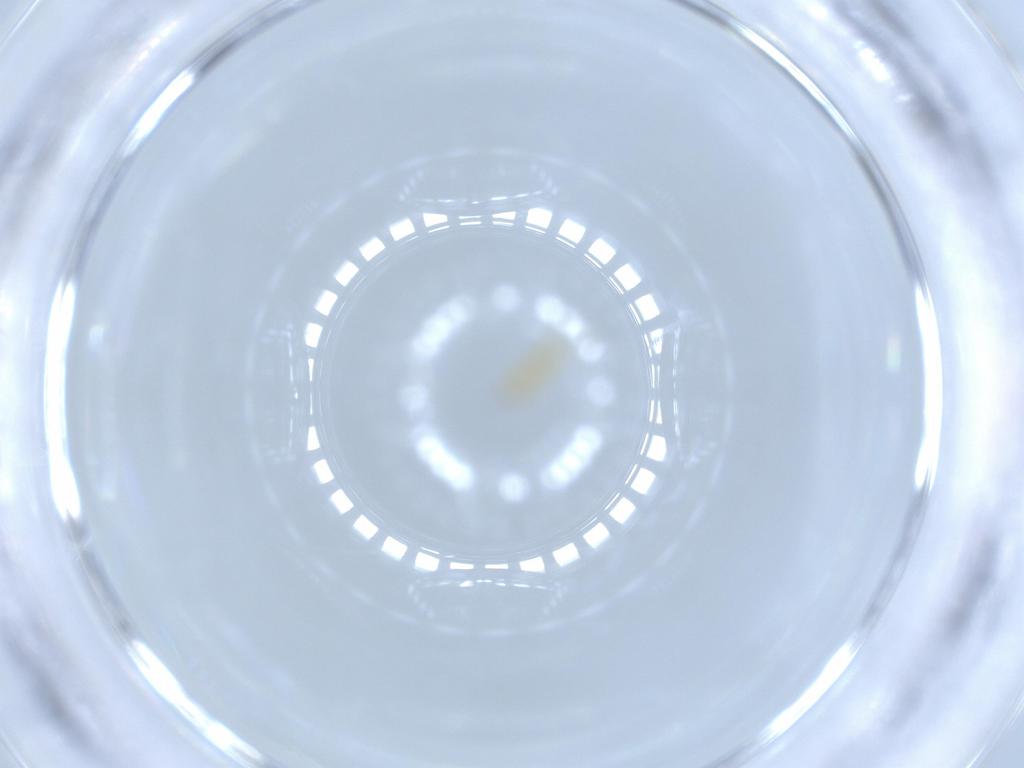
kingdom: Animalia
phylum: Arthropoda
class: Insecta
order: Thysanoptera
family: Thripidae
